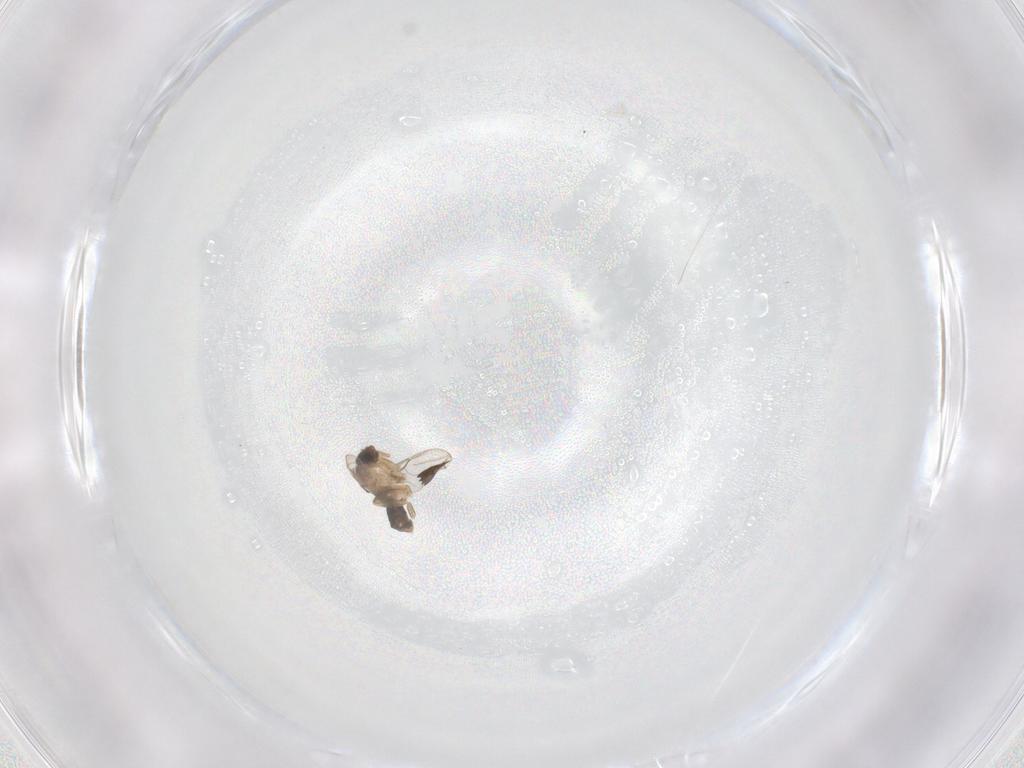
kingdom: Animalia
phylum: Arthropoda
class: Insecta
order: Diptera
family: Phoridae
